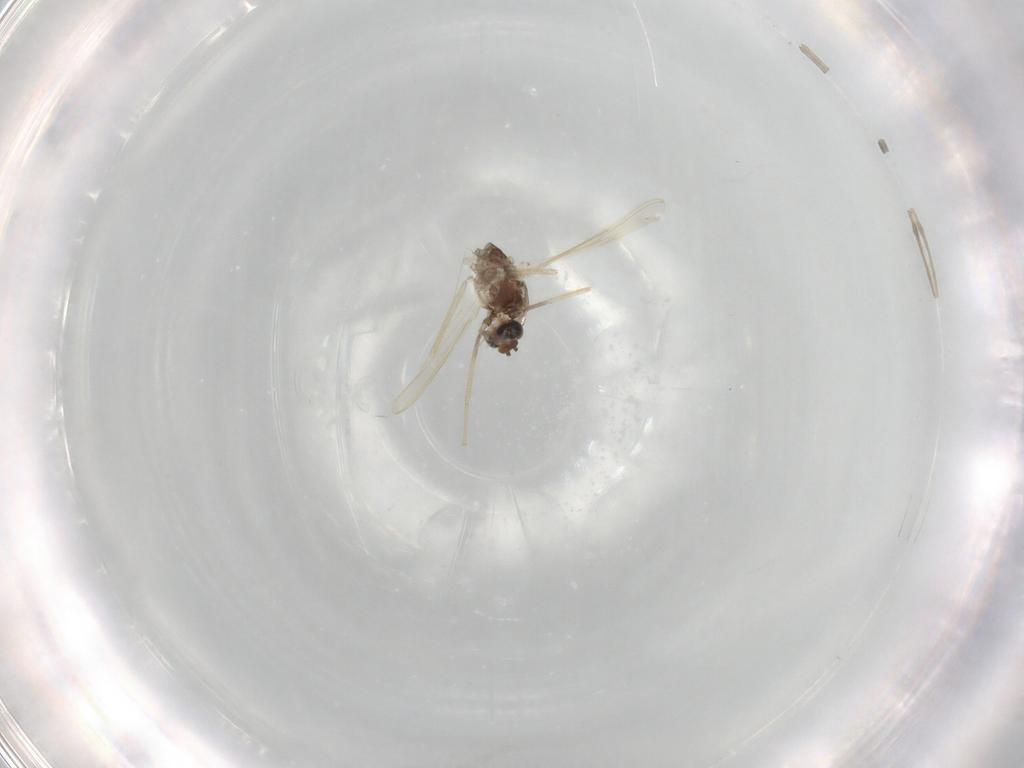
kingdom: Animalia
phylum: Arthropoda
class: Insecta
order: Diptera
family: Chironomidae
